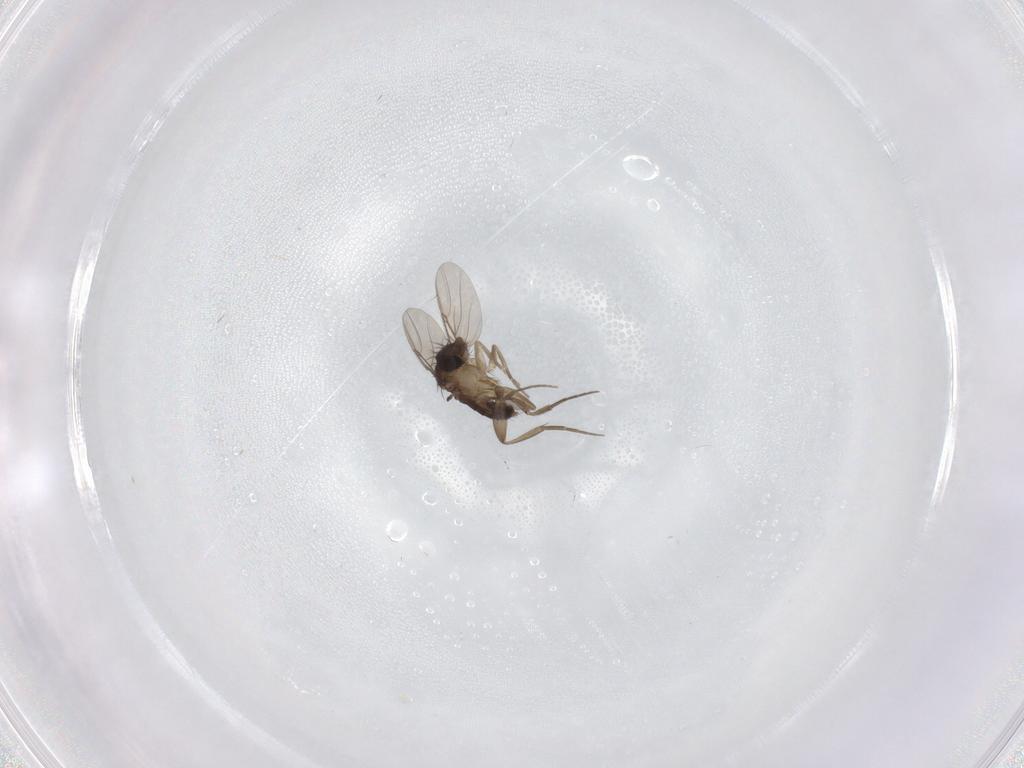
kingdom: Animalia
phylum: Arthropoda
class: Insecta
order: Diptera
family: Phoridae
